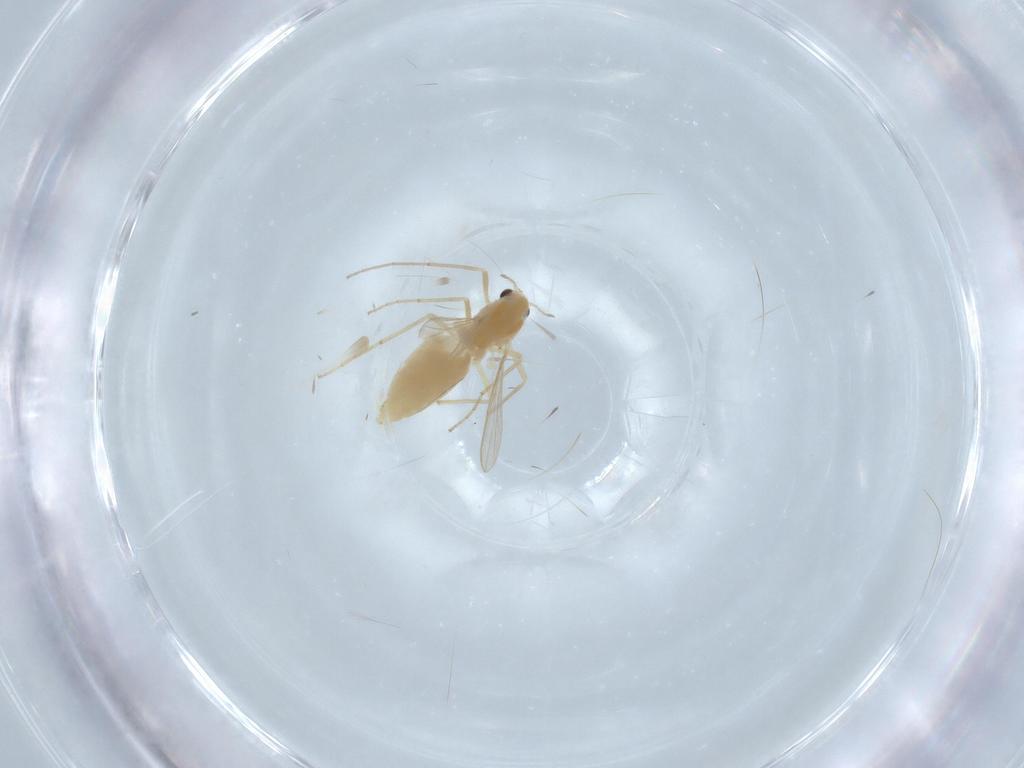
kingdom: Animalia
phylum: Arthropoda
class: Insecta
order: Diptera
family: Chironomidae
